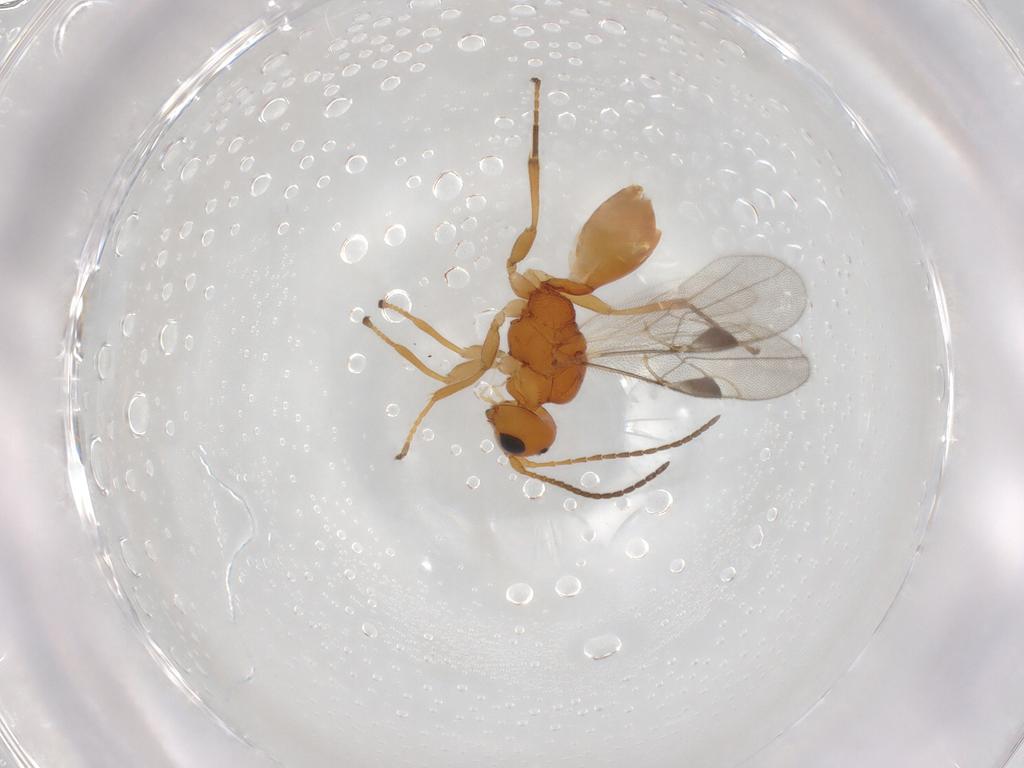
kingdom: Animalia
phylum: Arthropoda
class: Insecta
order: Hymenoptera
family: Braconidae
